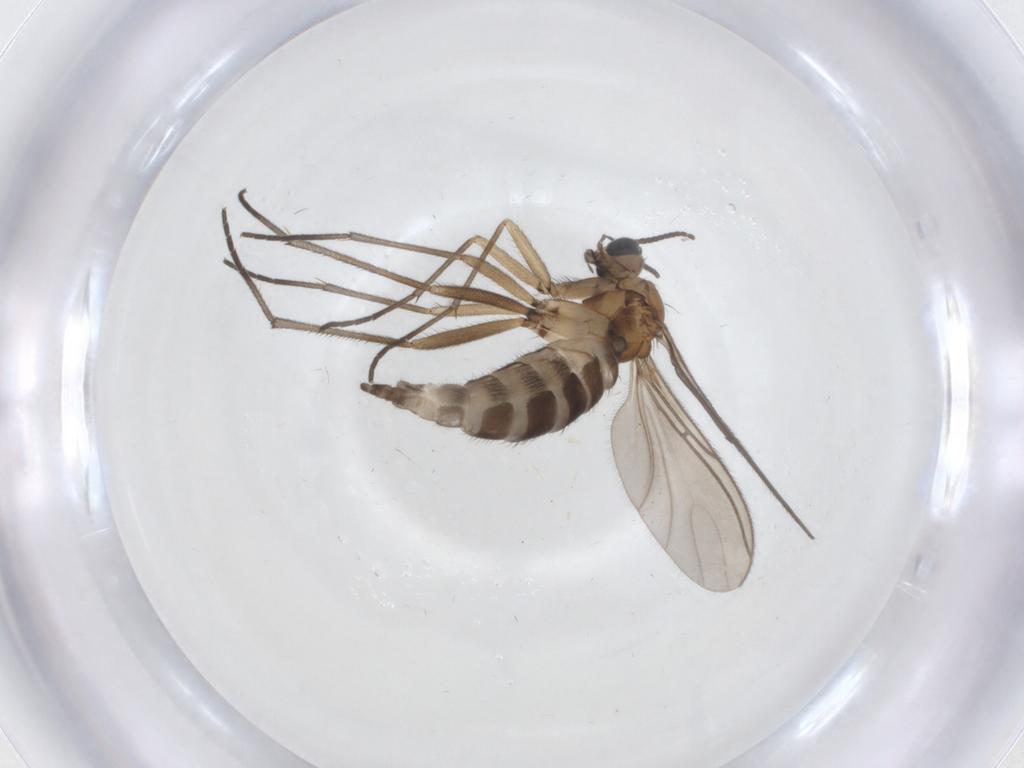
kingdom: Animalia
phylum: Arthropoda
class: Insecta
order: Diptera
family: Sciaridae
